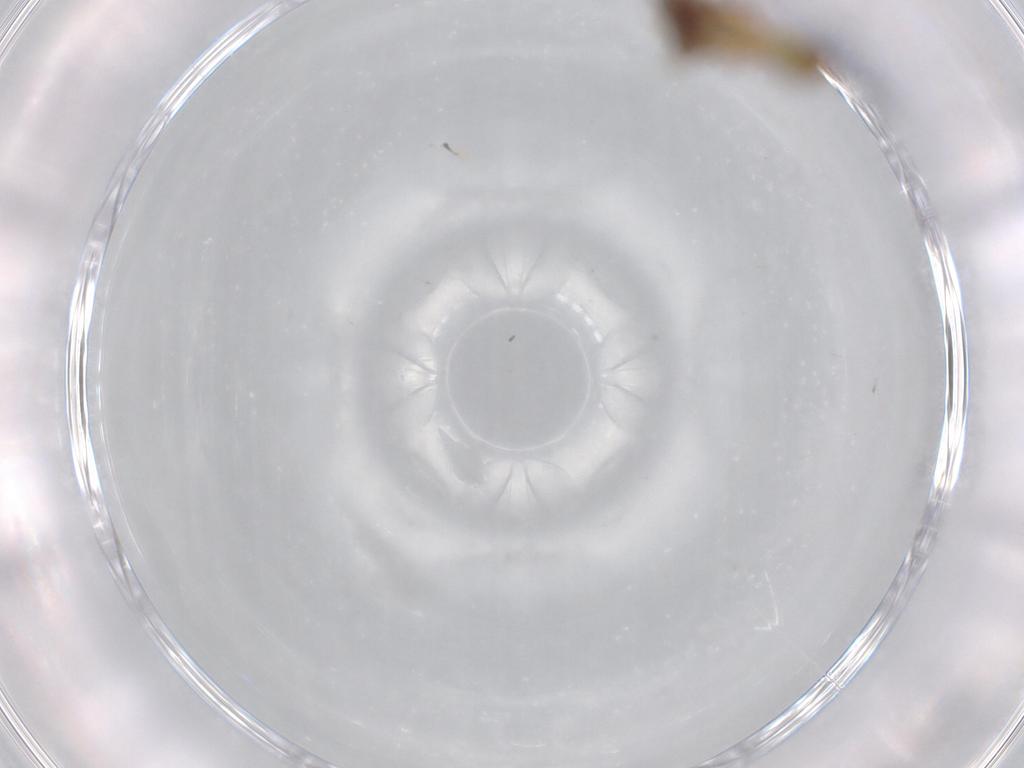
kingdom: Animalia
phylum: Arthropoda
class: Insecta
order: Hymenoptera
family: Encyrtidae
